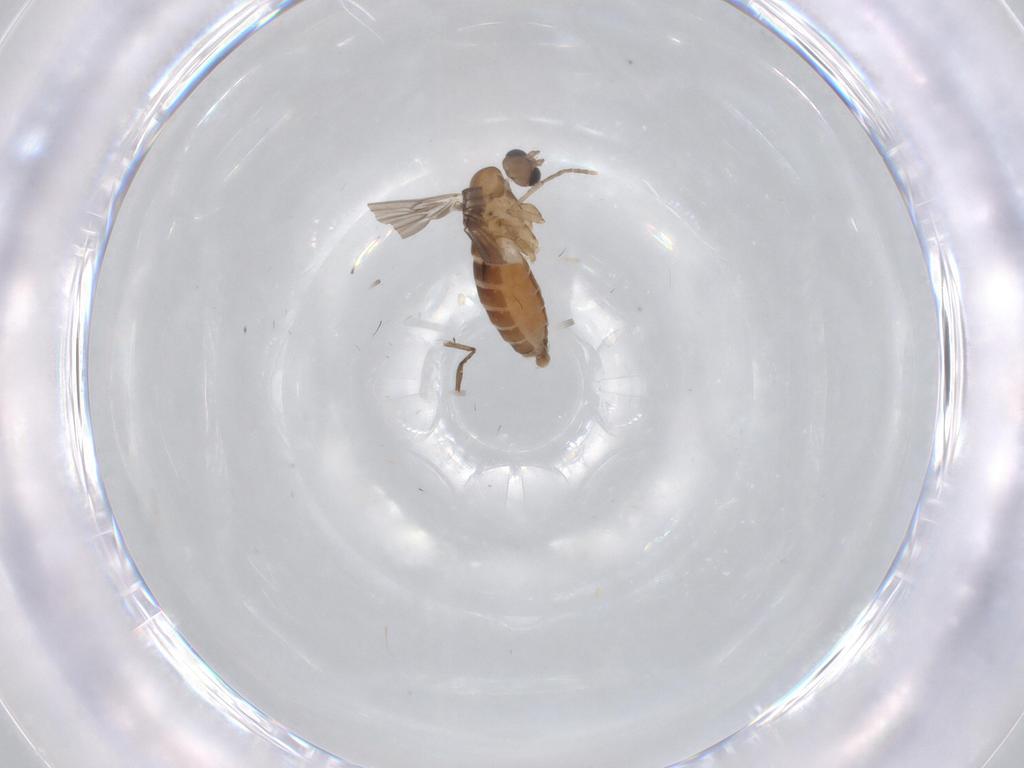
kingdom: Animalia
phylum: Arthropoda
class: Insecta
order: Diptera
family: Psychodidae
